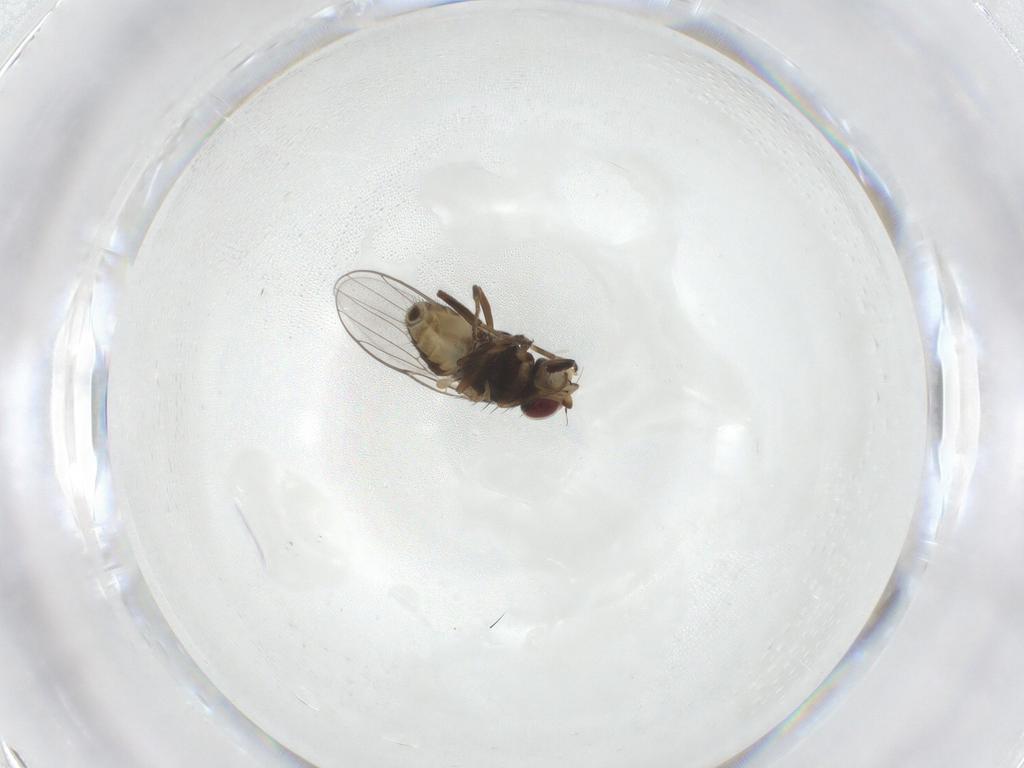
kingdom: Animalia
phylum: Arthropoda
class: Insecta
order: Diptera
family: Chloropidae
